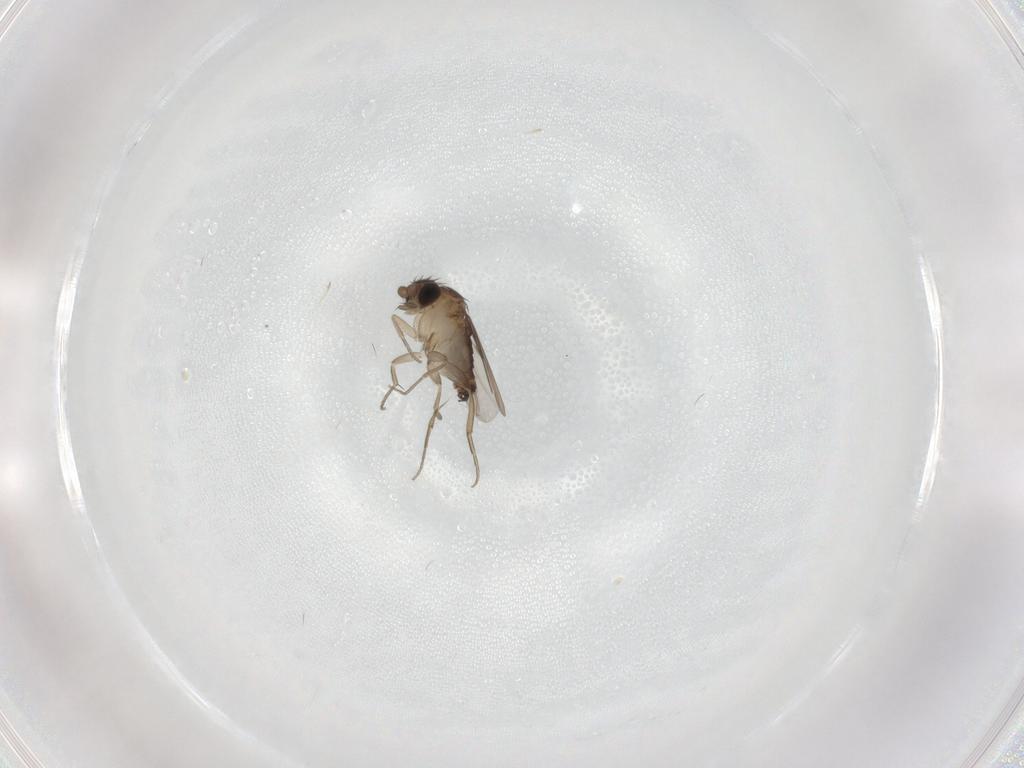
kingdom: Animalia
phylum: Arthropoda
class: Insecta
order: Diptera
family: Phoridae
